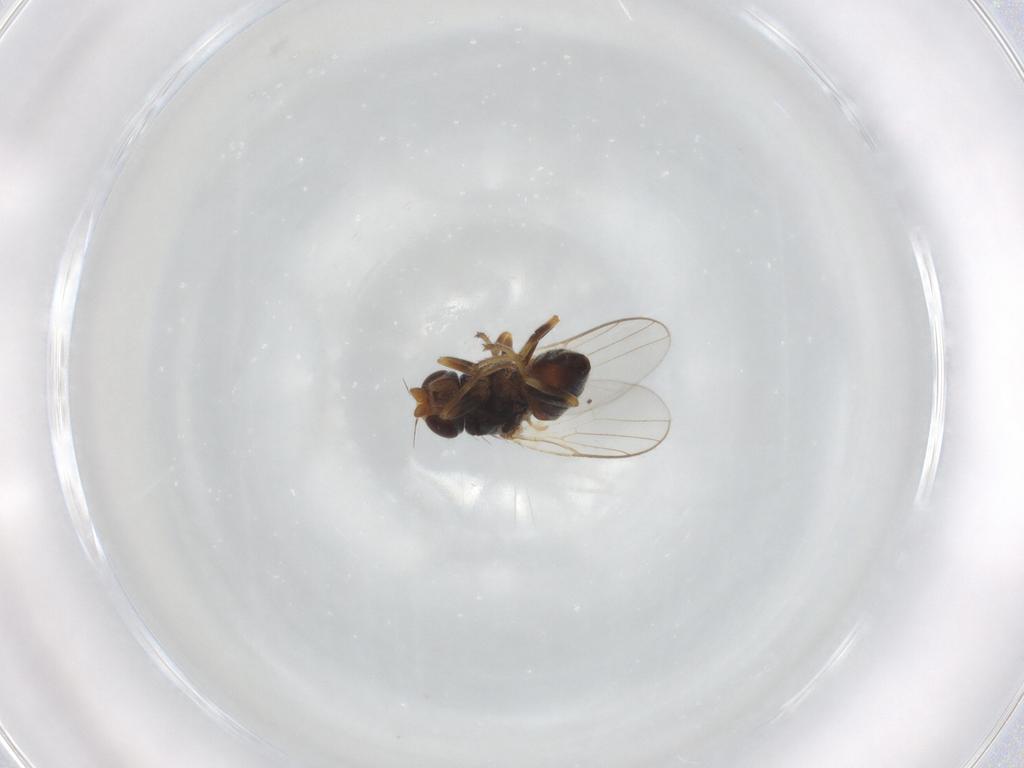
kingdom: Animalia
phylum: Arthropoda
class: Insecta
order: Diptera
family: Chloropidae
